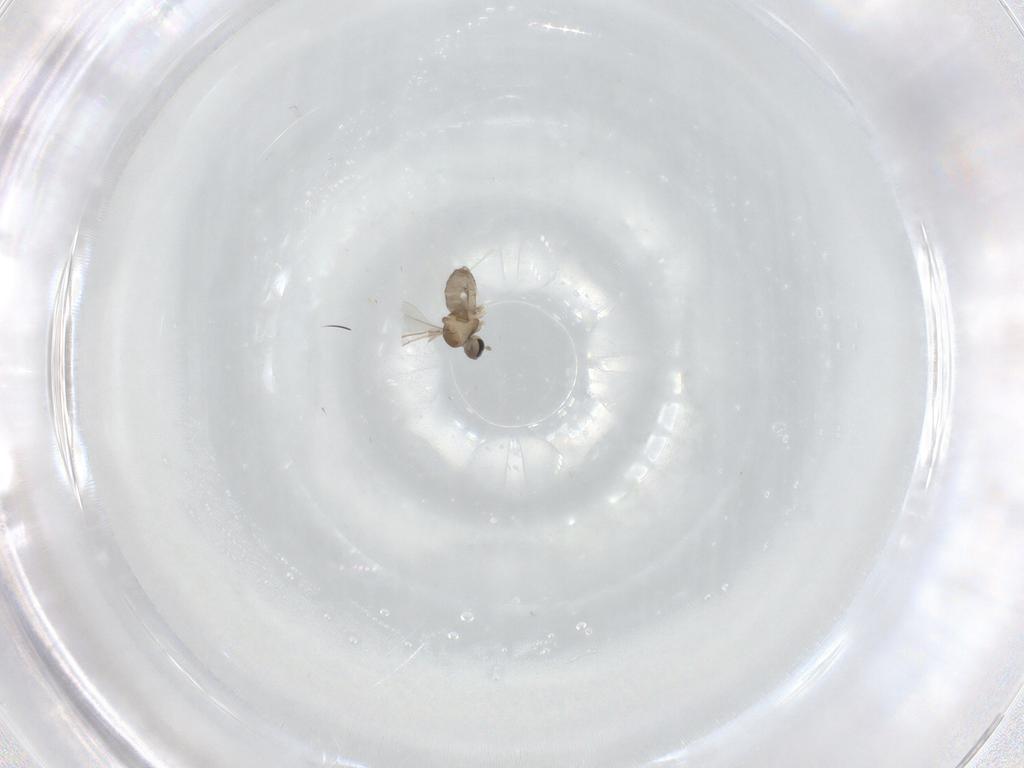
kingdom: Animalia
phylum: Arthropoda
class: Insecta
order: Diptera
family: Cecidomyiidae
